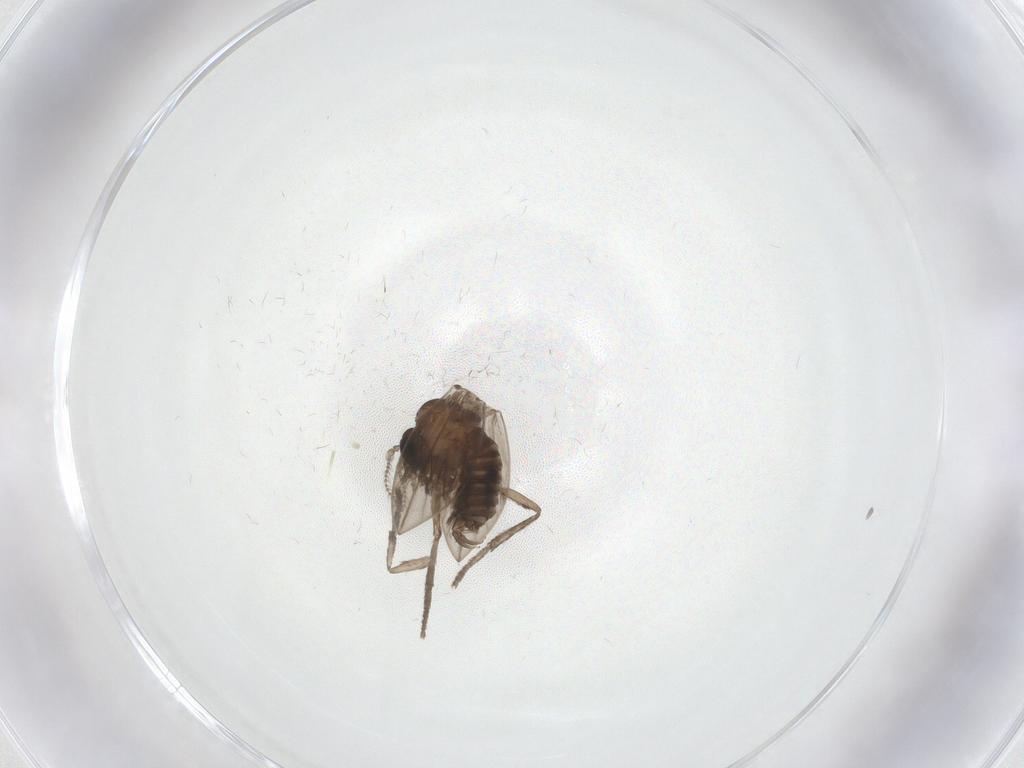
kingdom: Animalia
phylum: Arthropoda
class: Insecta
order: Diptera
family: Psychodidae
